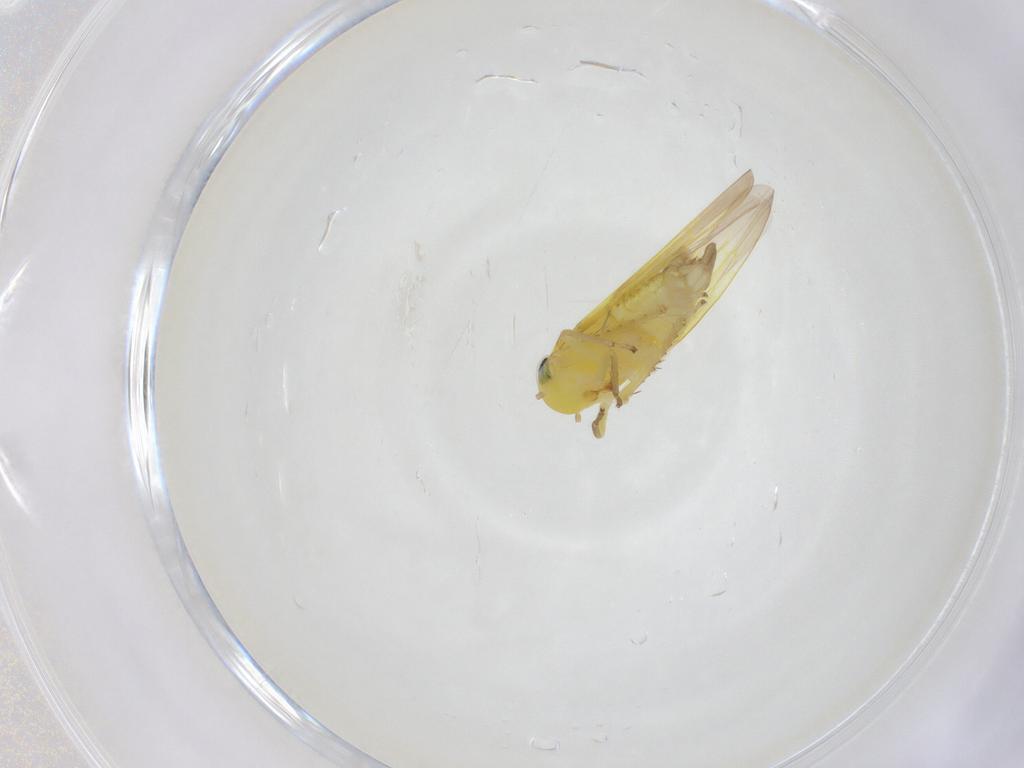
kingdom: Animalia
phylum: Arthropoda
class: Insecta
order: Hemiptera
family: Cicadellidae
